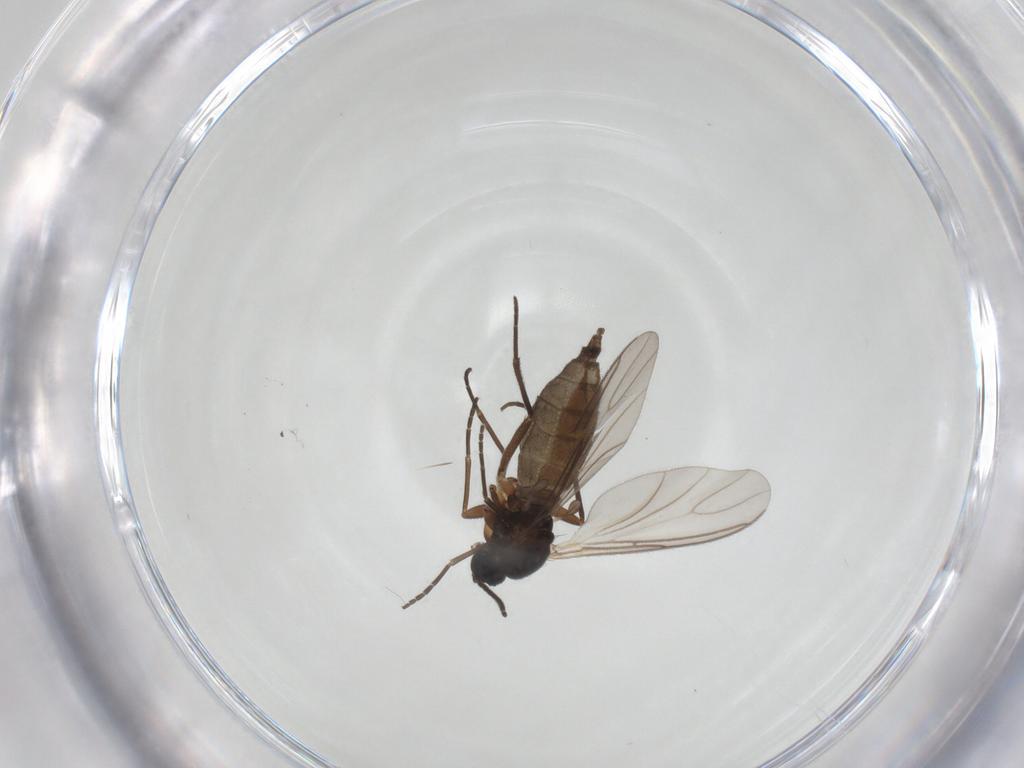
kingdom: Animalia
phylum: Arthropoda
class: Insecta
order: Diptera
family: Sciaridae
